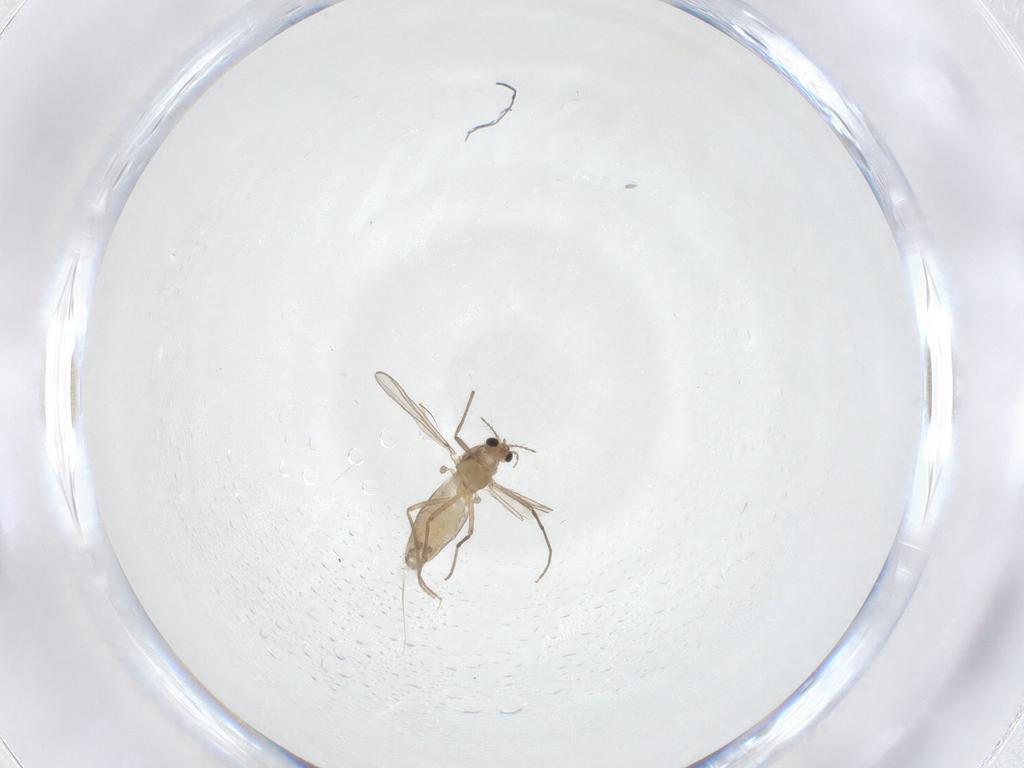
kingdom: Animalia
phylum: Arthropoda
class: Insecta
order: Diptera
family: Chironomidae
